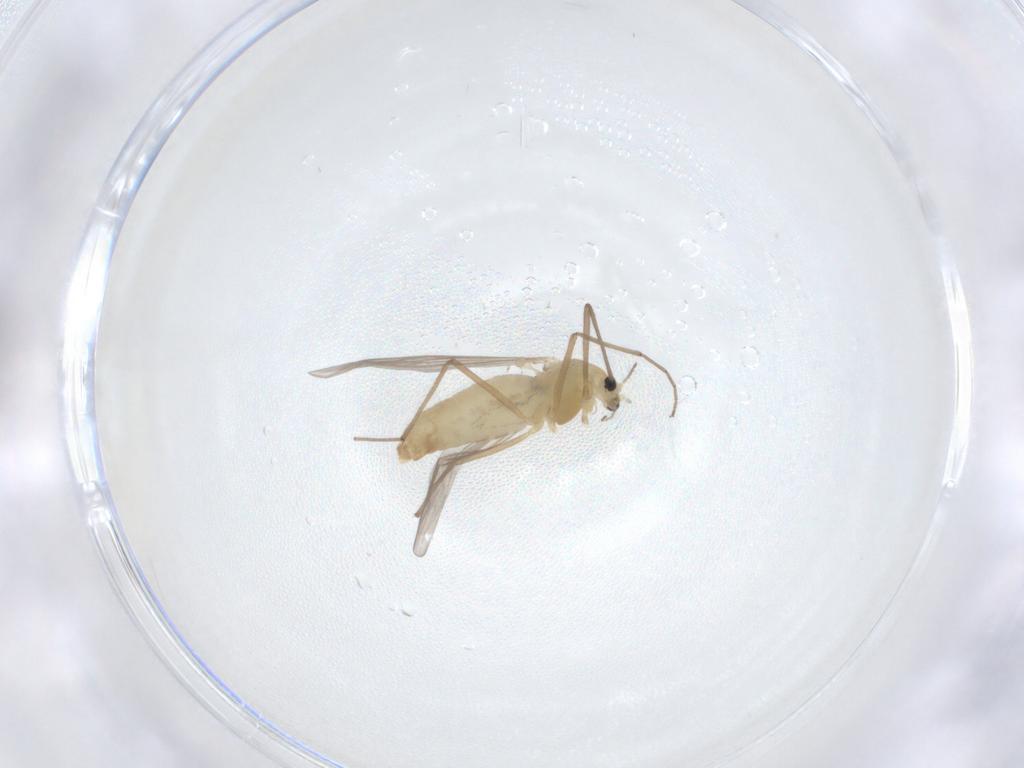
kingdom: Animalia
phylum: Arthropoda
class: Insecta
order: Diptera
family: Chironomidae
